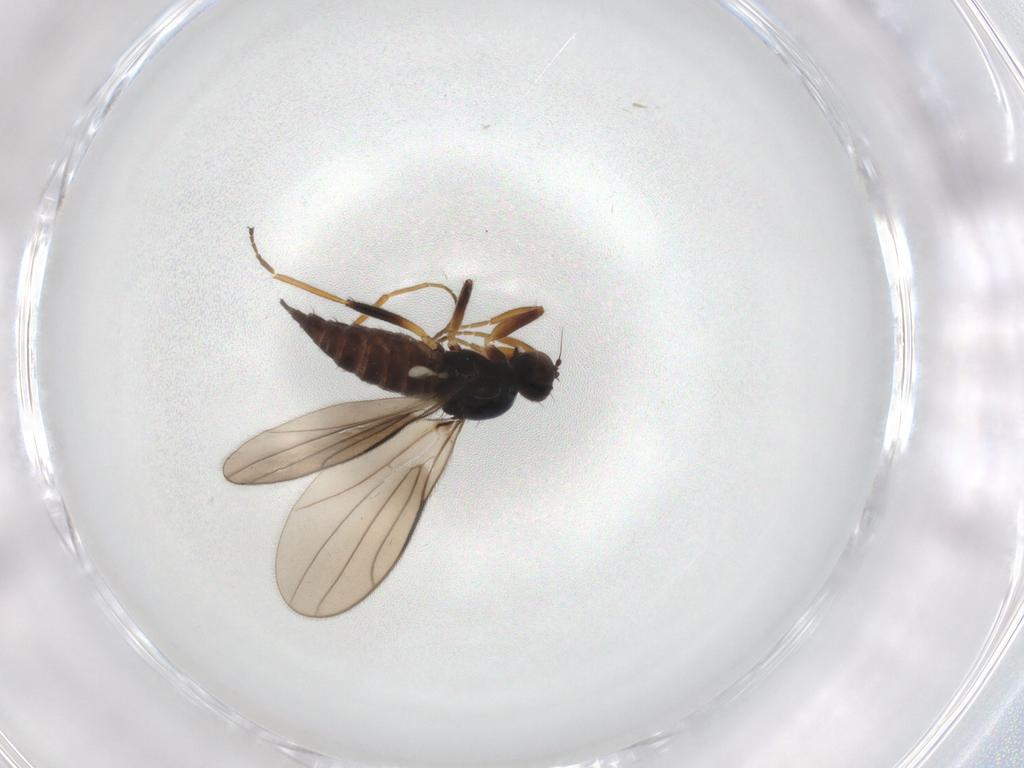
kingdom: Animalia
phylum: Arthropoda
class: Insecta
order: Diptera
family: Hybotidae
